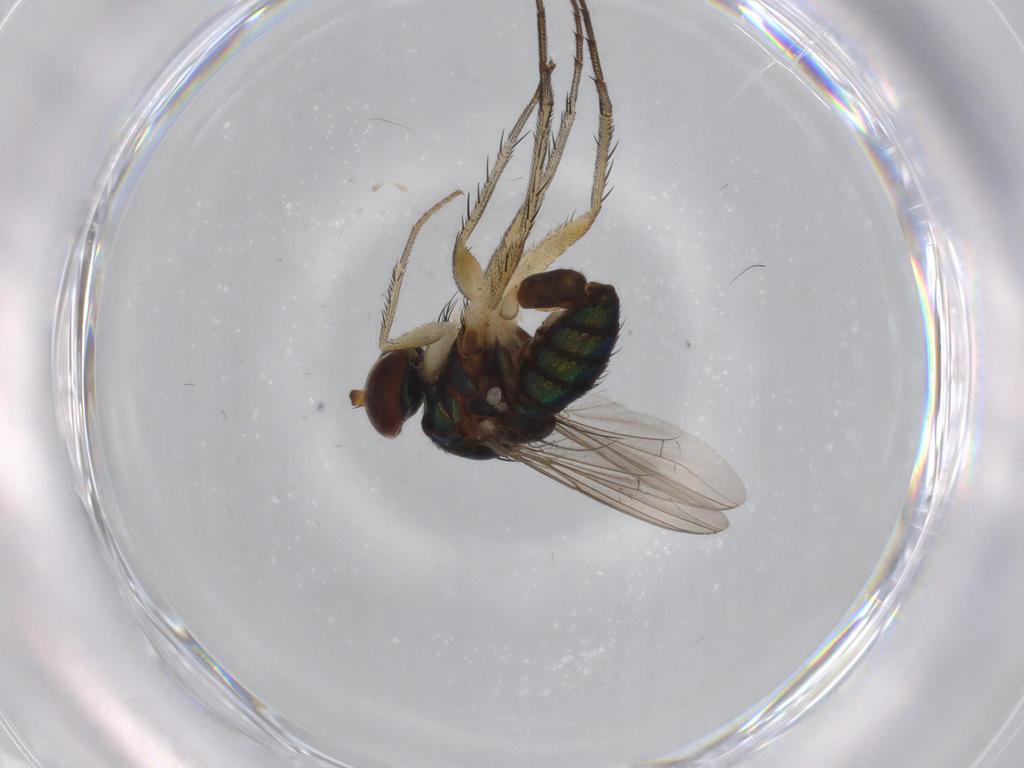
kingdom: Animalia
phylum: Arthropoda
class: Insecta
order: Diptera
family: Dolichopodidae
